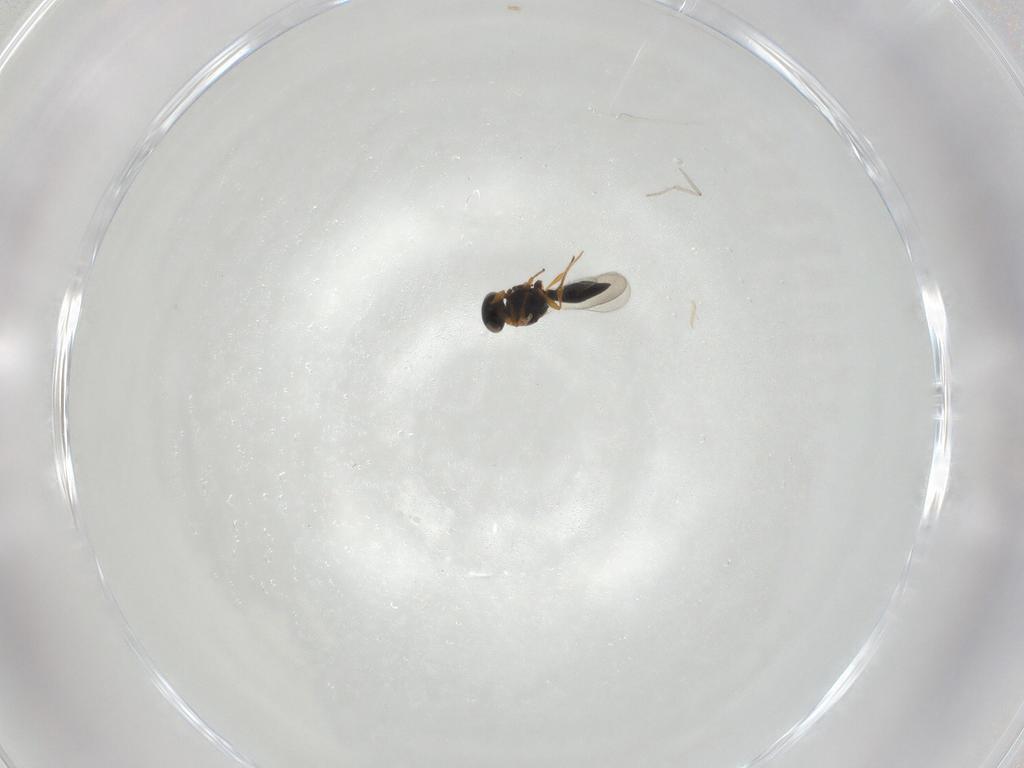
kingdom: Animalia
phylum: Arthropoda
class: Insecta
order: Hymenoptera
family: Platygastridae
